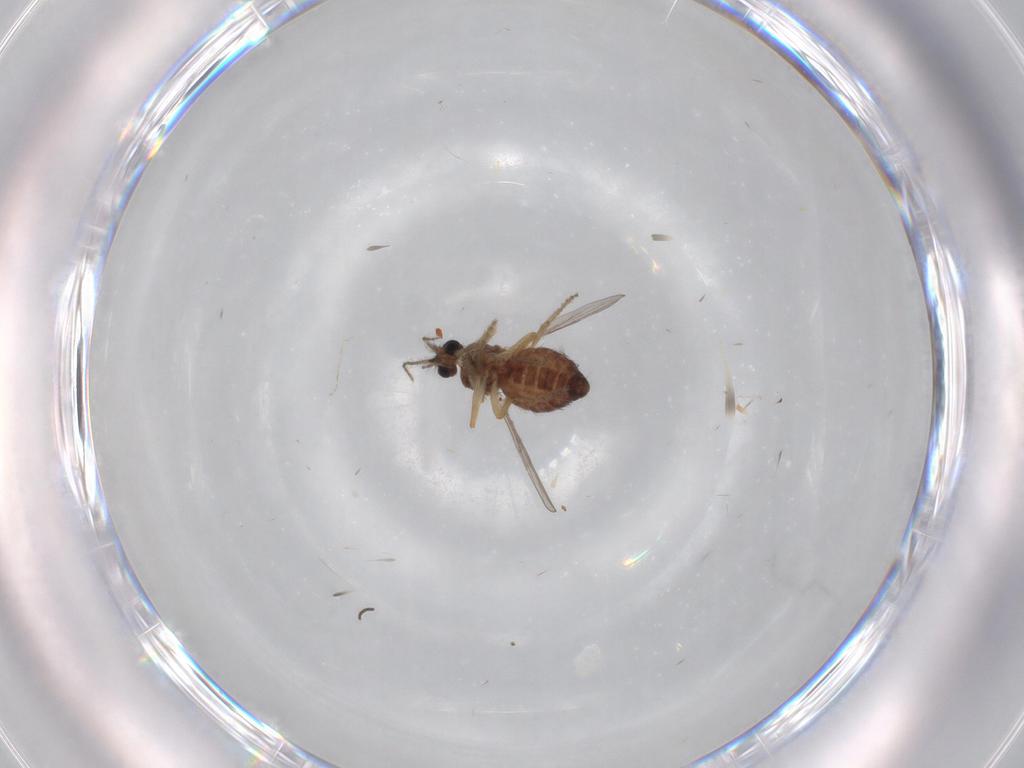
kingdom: Animalia
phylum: Arthropoda
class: Insecta
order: Diptera
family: Ceratopogonidae
